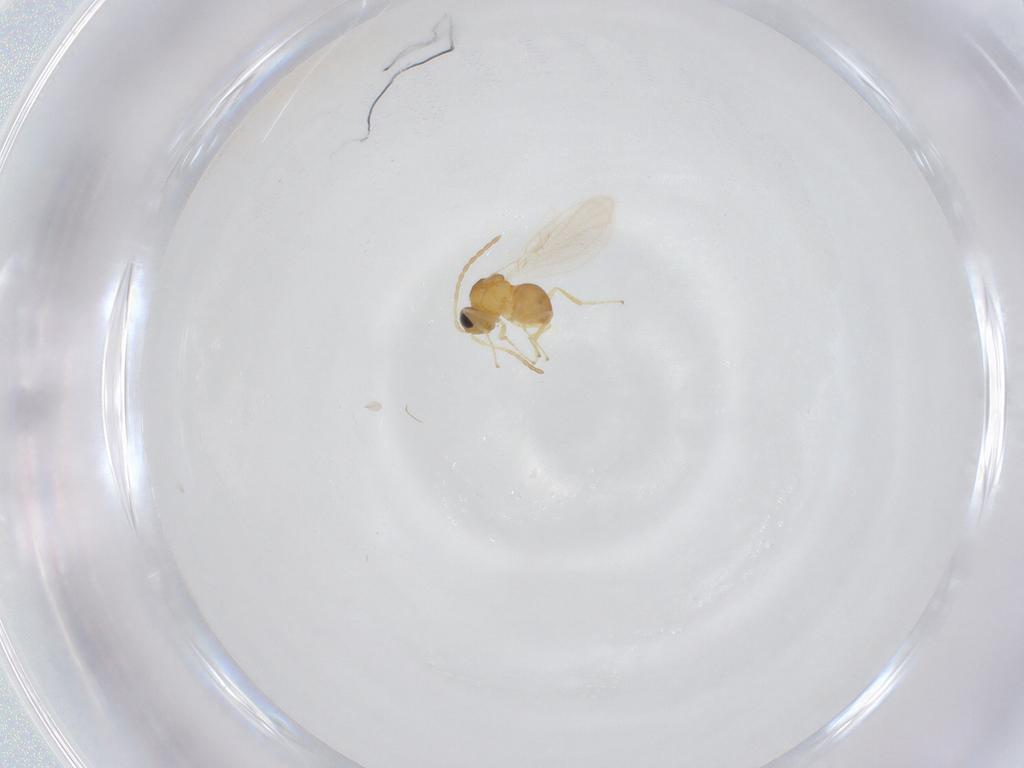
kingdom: Animalia
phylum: Arthropoda
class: Insecta
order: Hymenoptera
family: Figitidae
